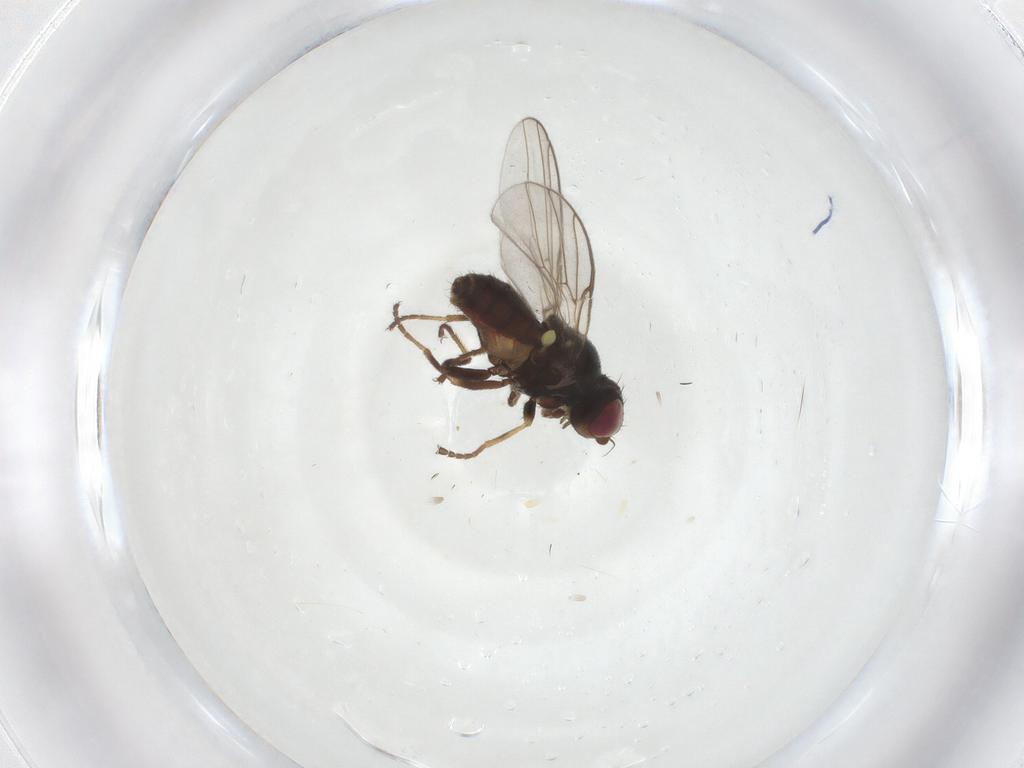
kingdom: Animalia
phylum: Arthropoda
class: Insecta
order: Diptera
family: Chloropidae
